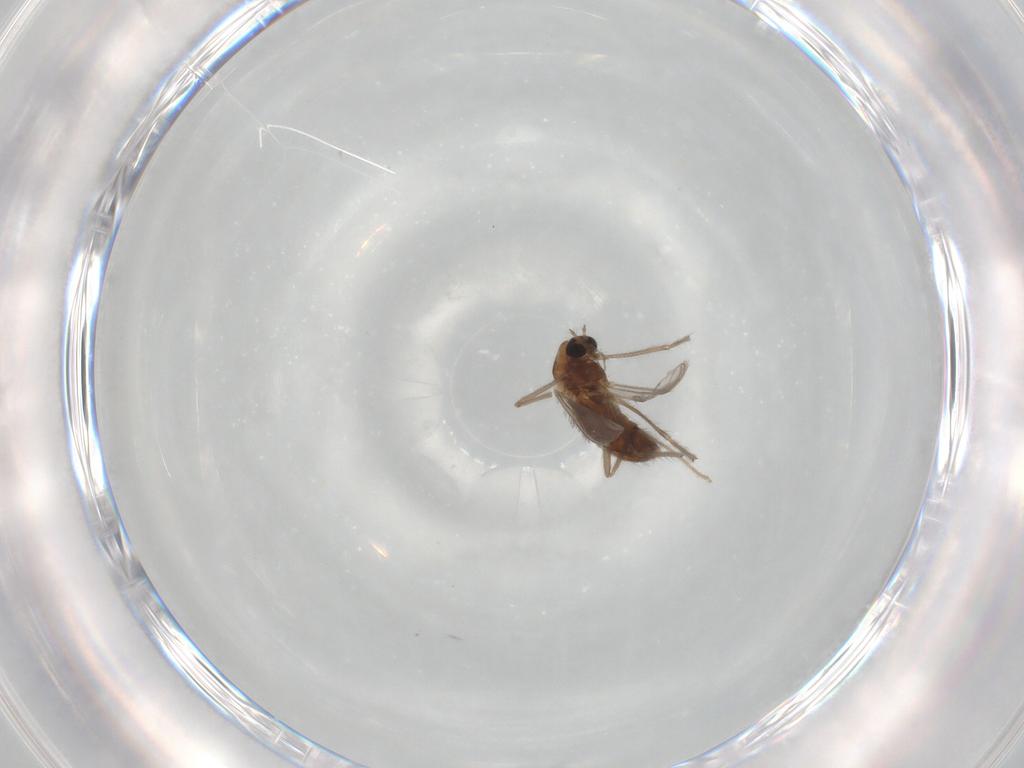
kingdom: Animalia
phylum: Arthropoda
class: Insecta
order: Diptera
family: Chironomidae
